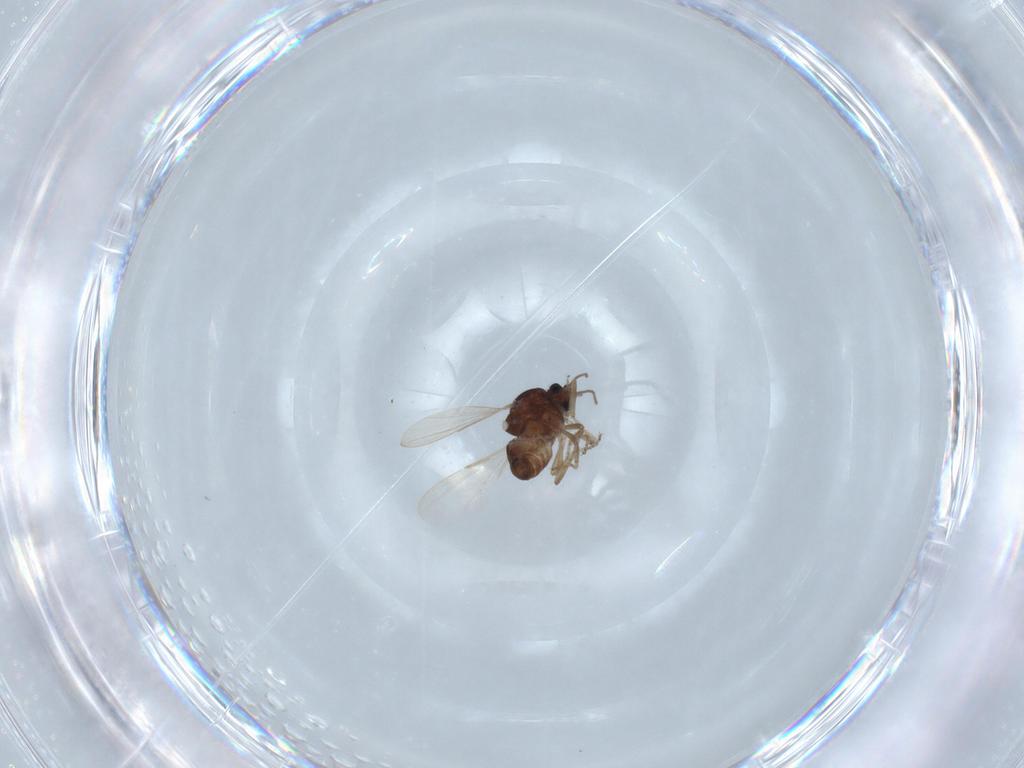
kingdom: Animalia
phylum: Arthropoda
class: Insecta
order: Diptera
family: Ceratopogonidae
